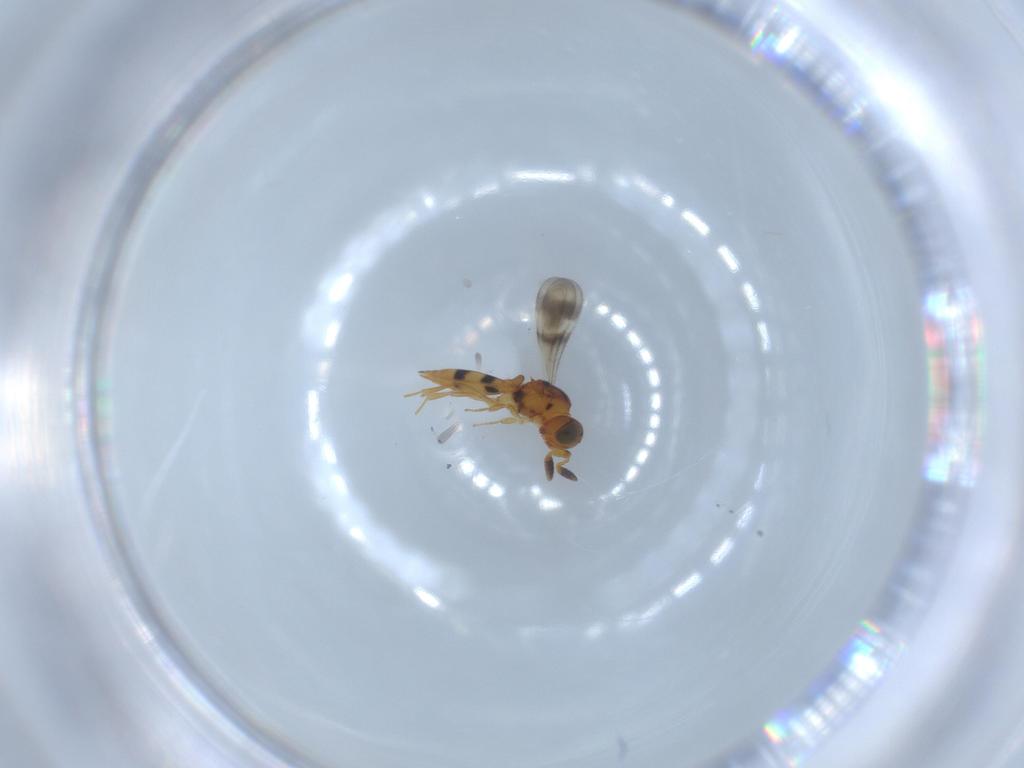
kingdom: Animalia
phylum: Arthropoda
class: Insecta
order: Hymenoptera
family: Scelionidae
